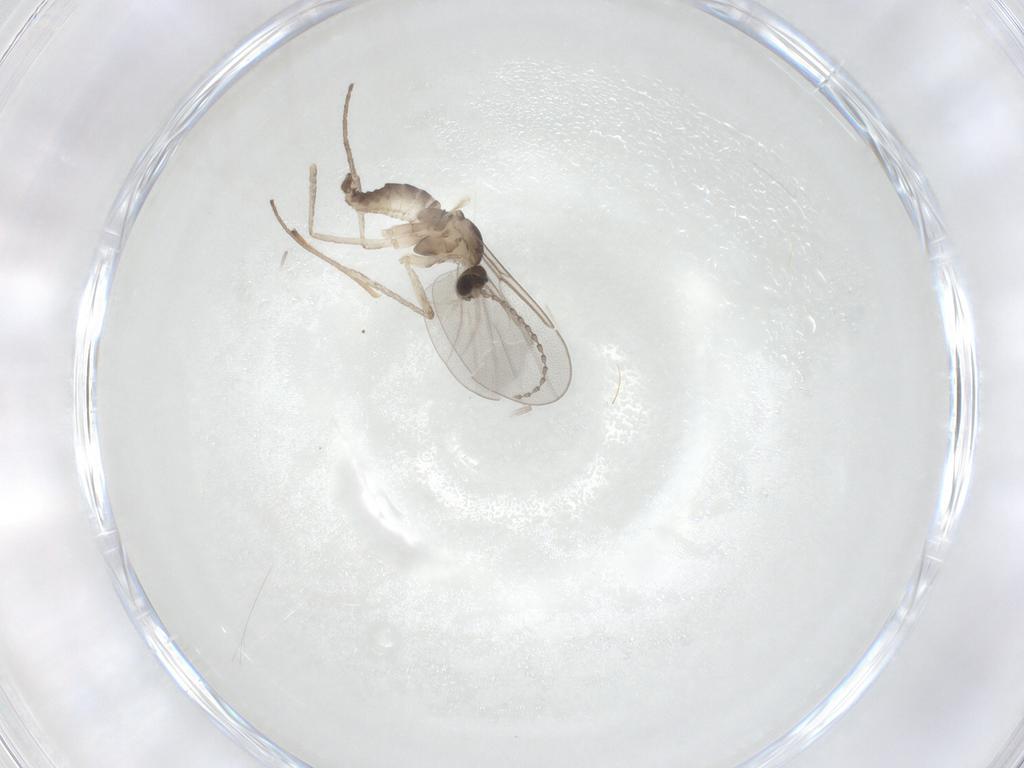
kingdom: Animalia
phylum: Arthropoda
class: Insecta
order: Diptera
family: Cecidomyiidae
